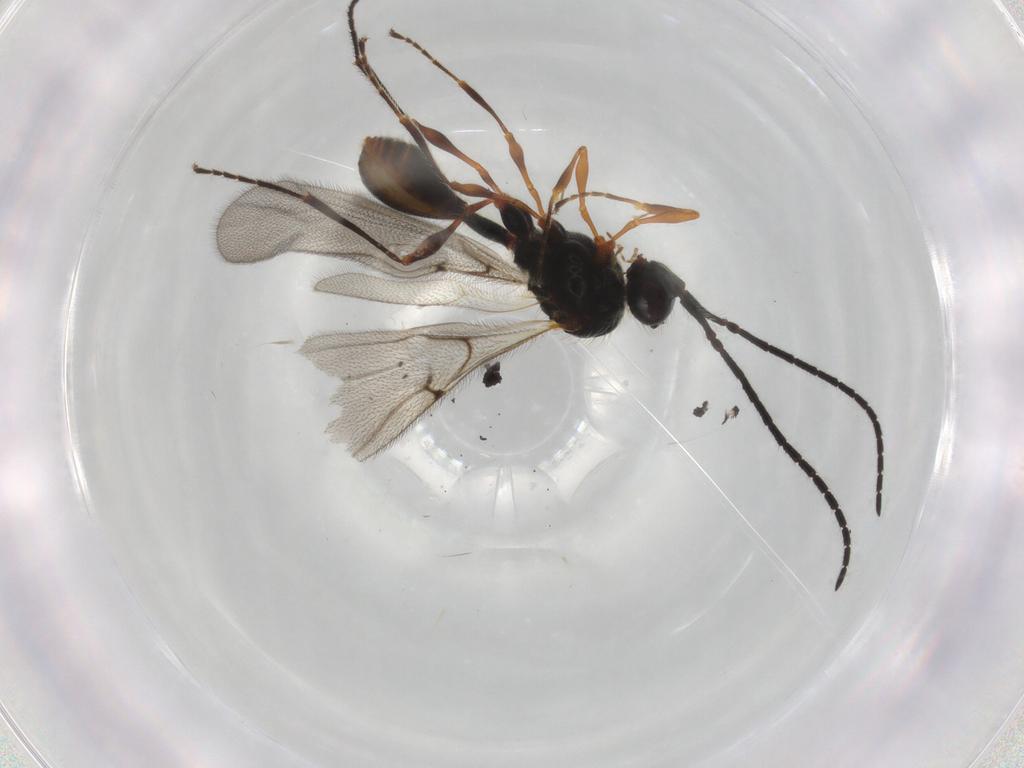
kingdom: Animalia
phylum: Arthropoda
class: Insecta
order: Hymenoptera
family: Diapriidae
